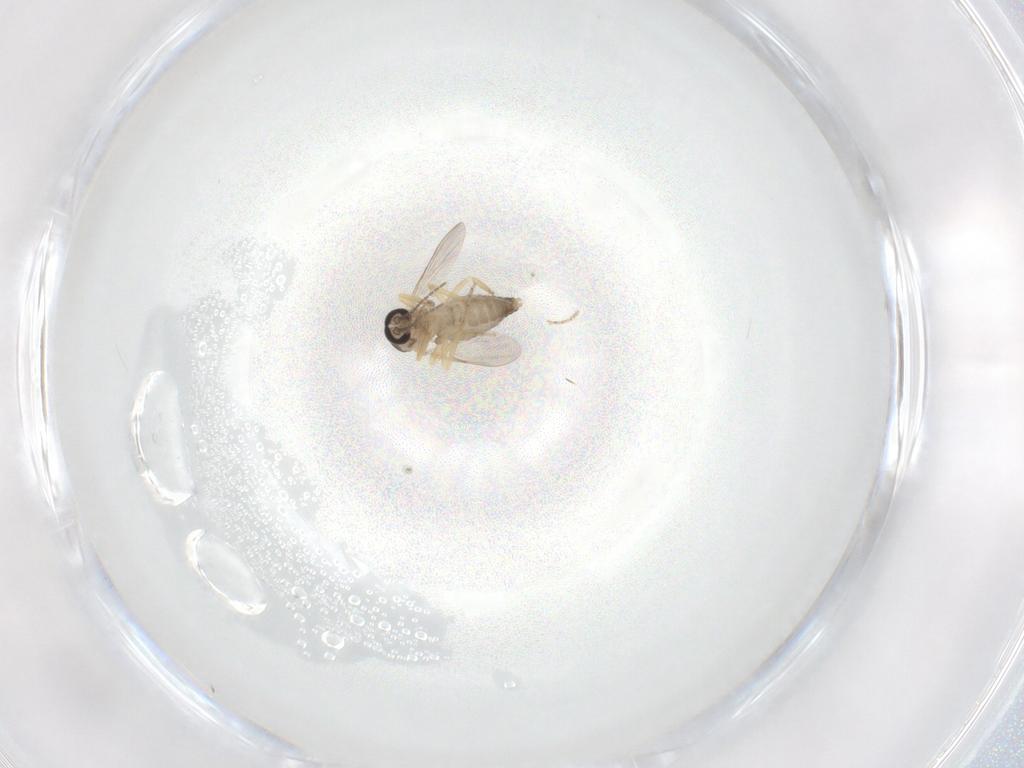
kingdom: Animalia
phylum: Arthropoda
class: Insecta
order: Diptera
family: Ceratopogonidae
